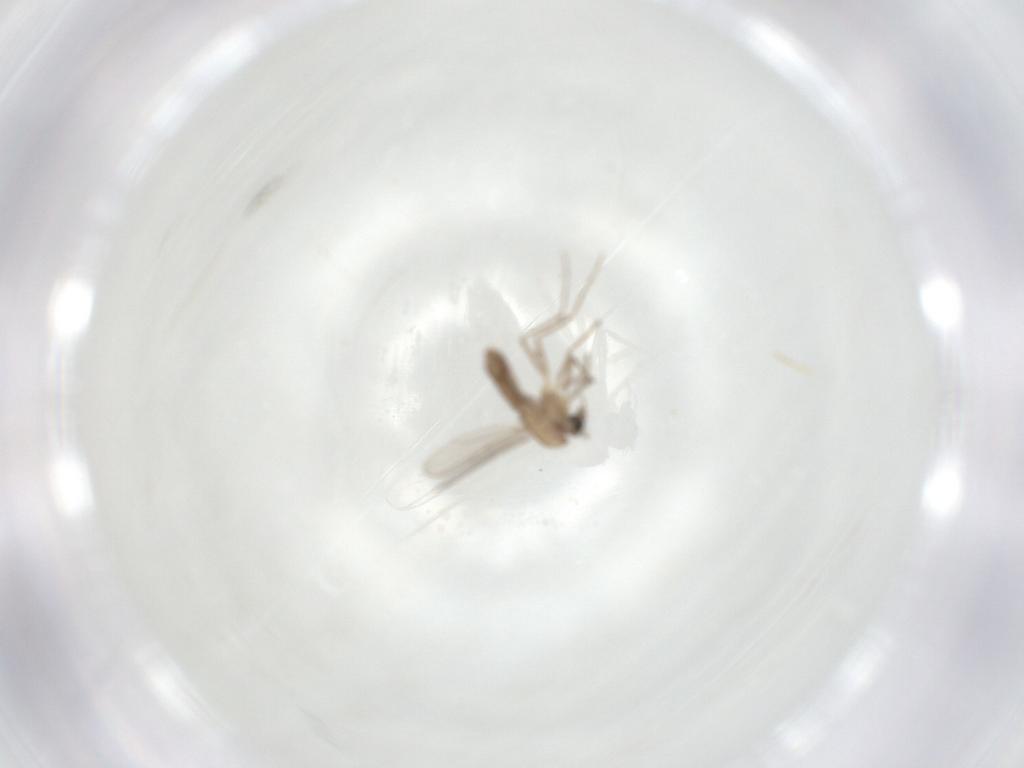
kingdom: Animalia
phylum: Arthropoda
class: Insecta
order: Diptera
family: Chironomidae
